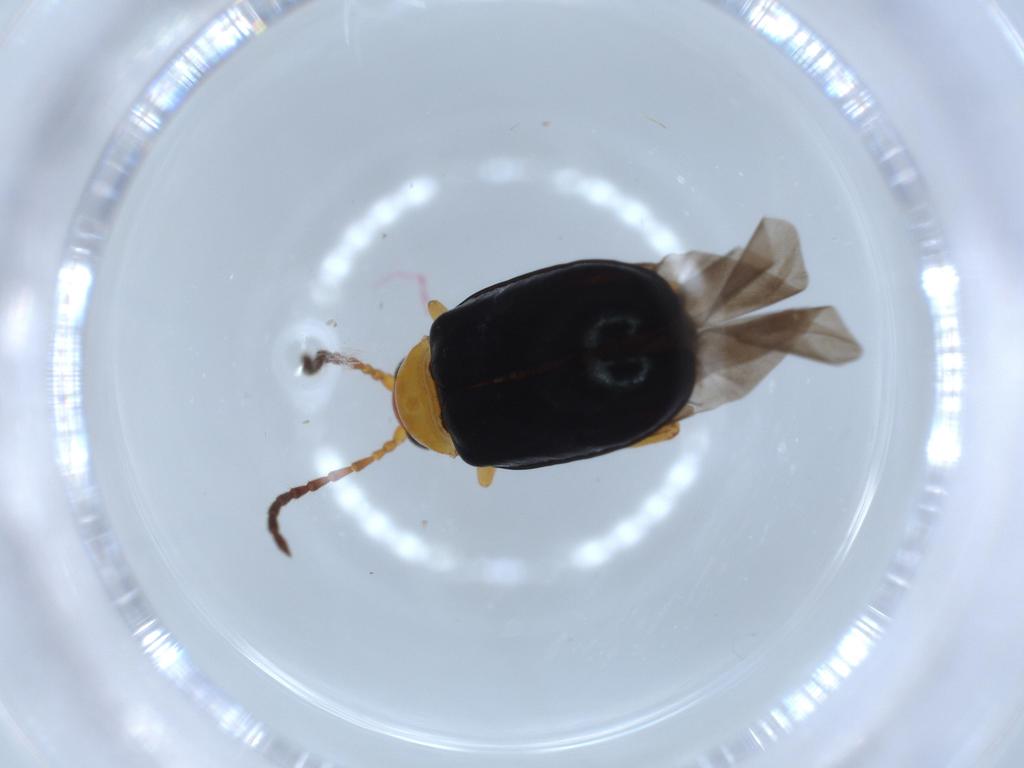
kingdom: Animalia
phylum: Arthropoda
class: Insecta
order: Coleoptera
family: Chrysomelidae
